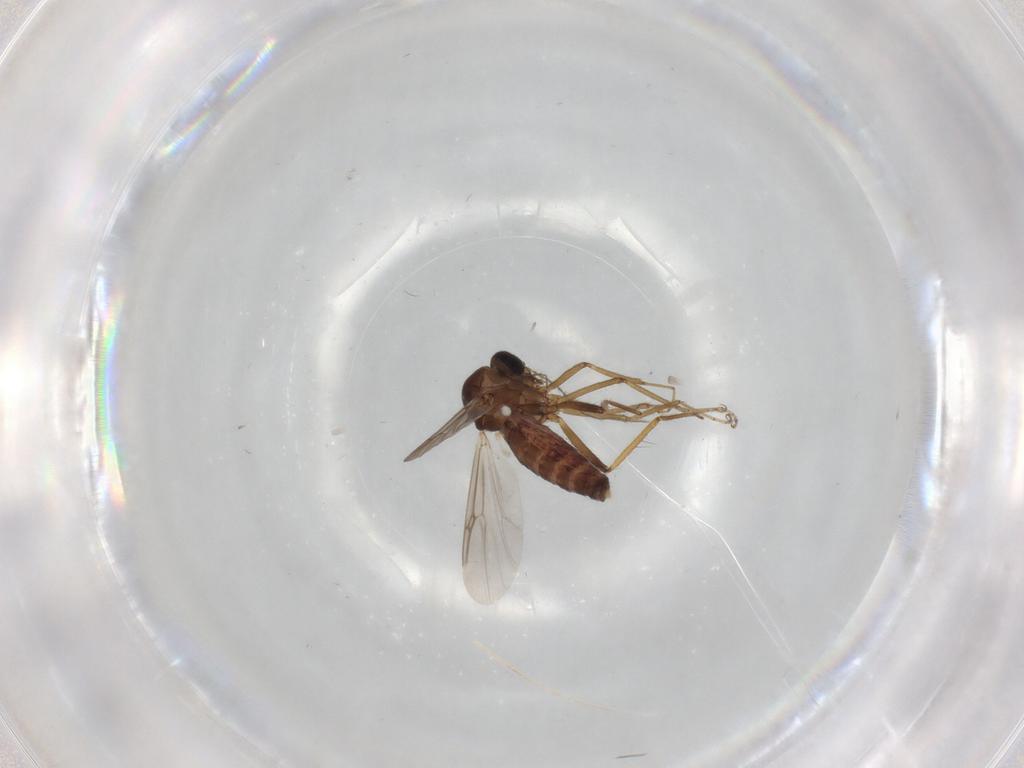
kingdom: Animalia
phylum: Arthropoda
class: Insecta
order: Diptera
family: Ceratopogonidae
